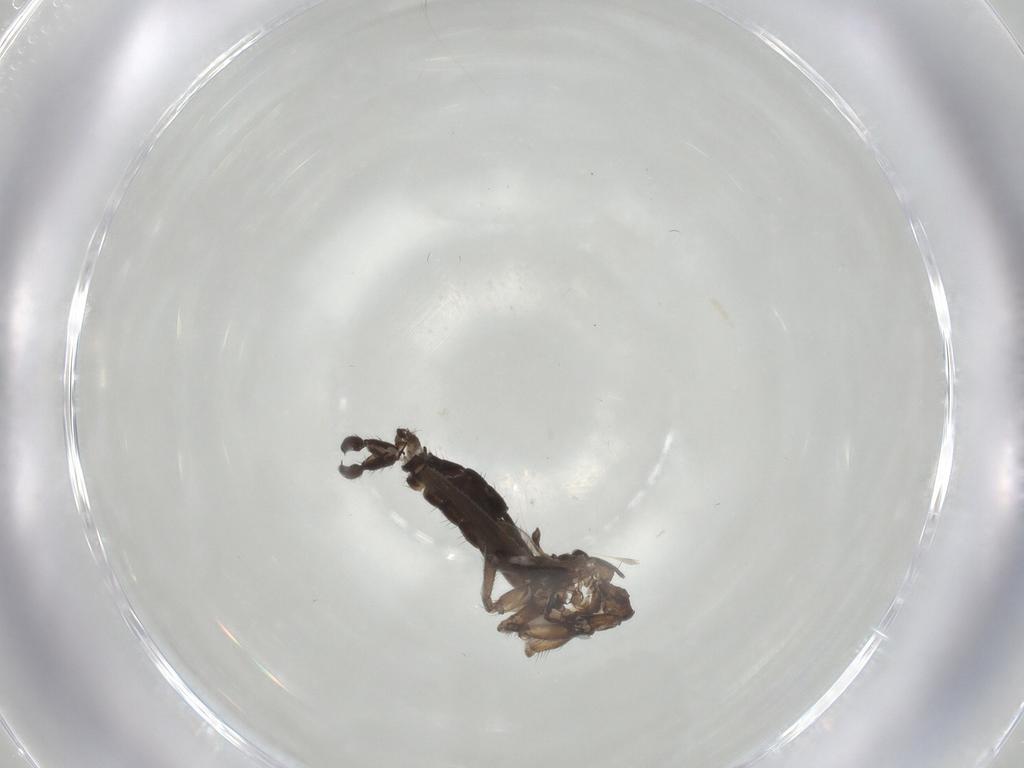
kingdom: Animalia
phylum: Arthropoda
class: Insecta
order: Diptera
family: Sciaridae
